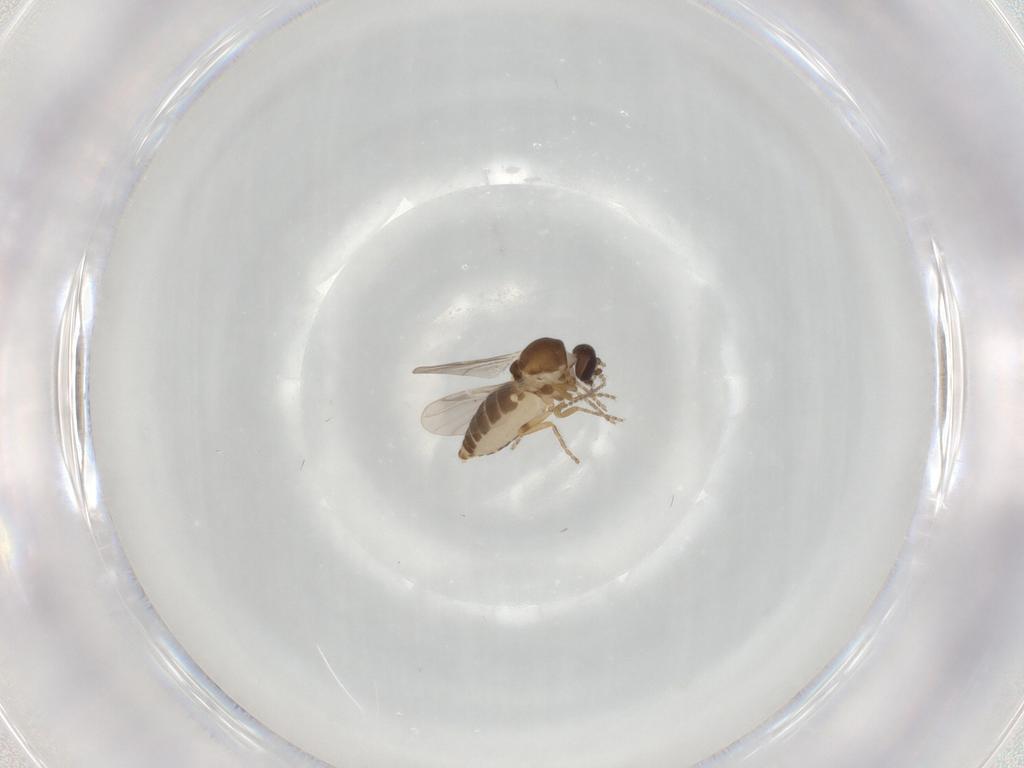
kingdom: Animalia
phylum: Arthropoda
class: Insecta
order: Diptera
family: Ceratopogonidae
